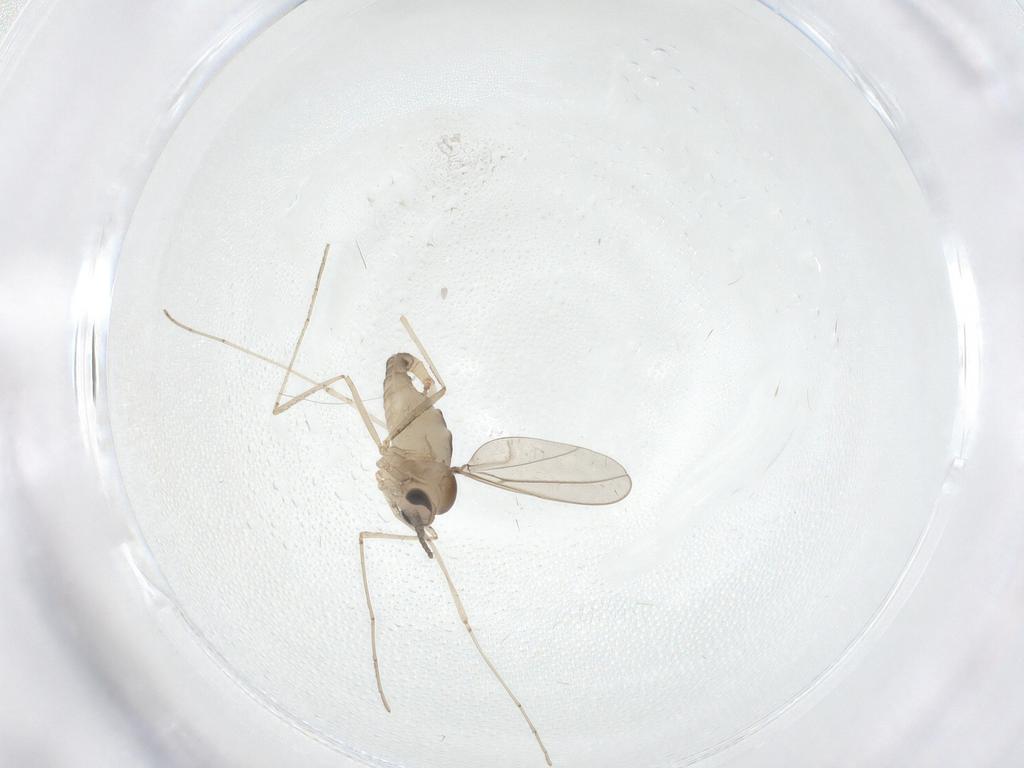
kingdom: Animalia
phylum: Arthropoda
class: Insecta
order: Diptera
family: Cecidomyiidae
